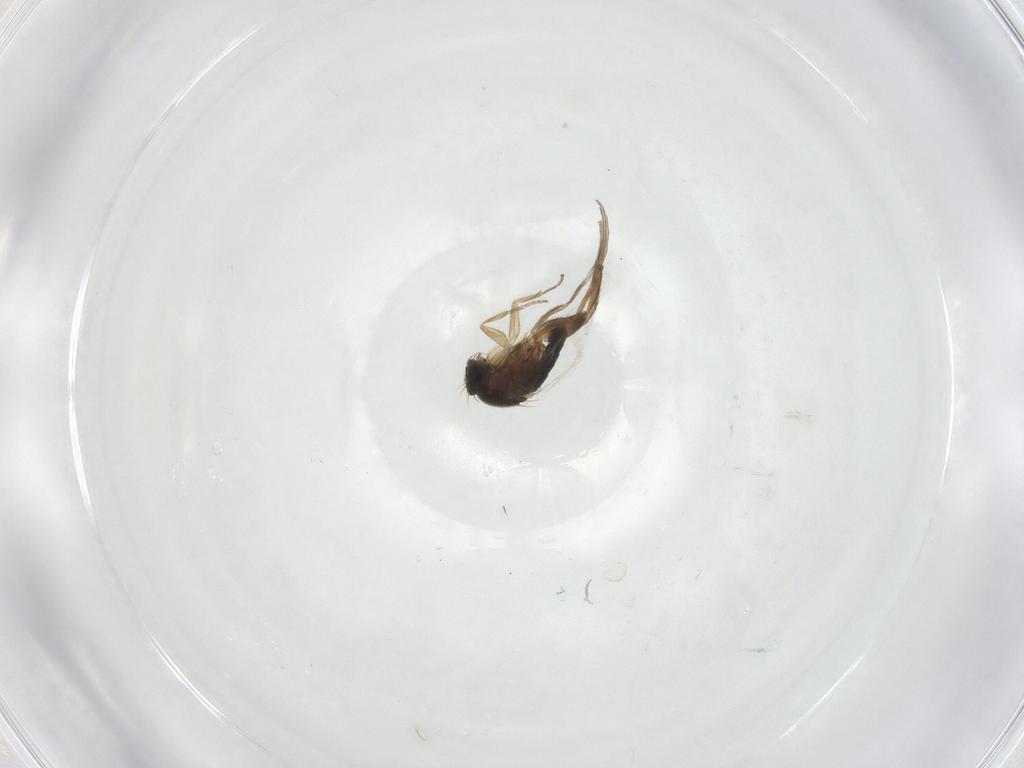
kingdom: Animalia
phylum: Arthropoda
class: Insecta
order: Diptera
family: Phoridae
